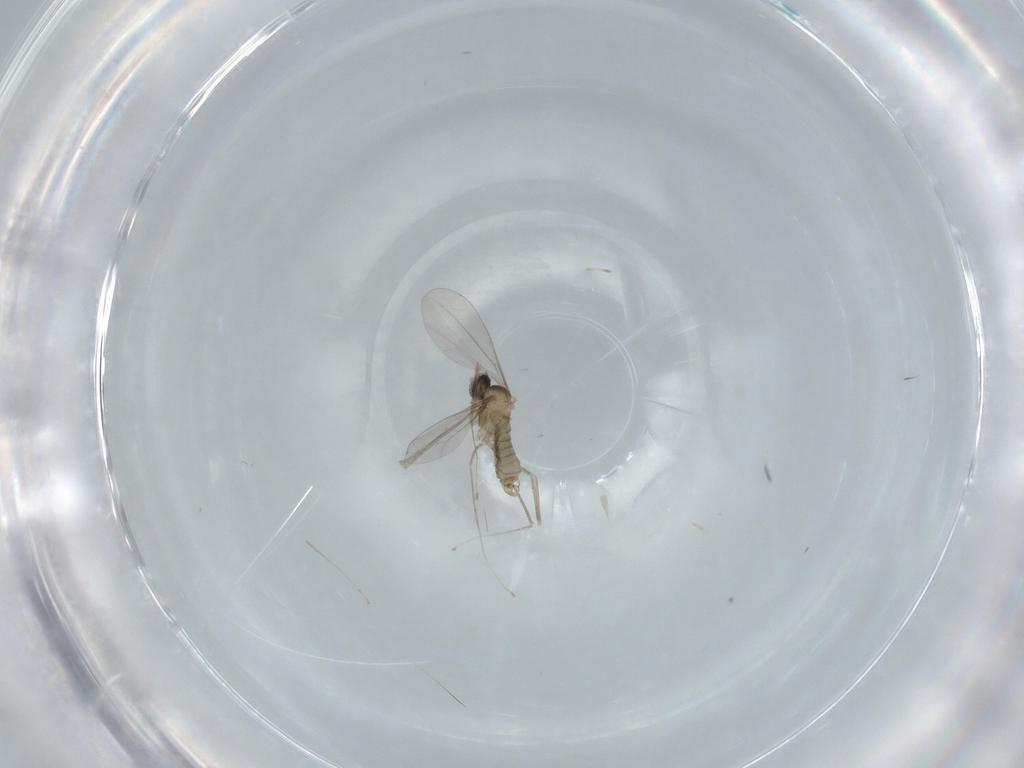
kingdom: Animalia
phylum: Arthropoda
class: Insecta
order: Diptera
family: Cecidomyiidae
